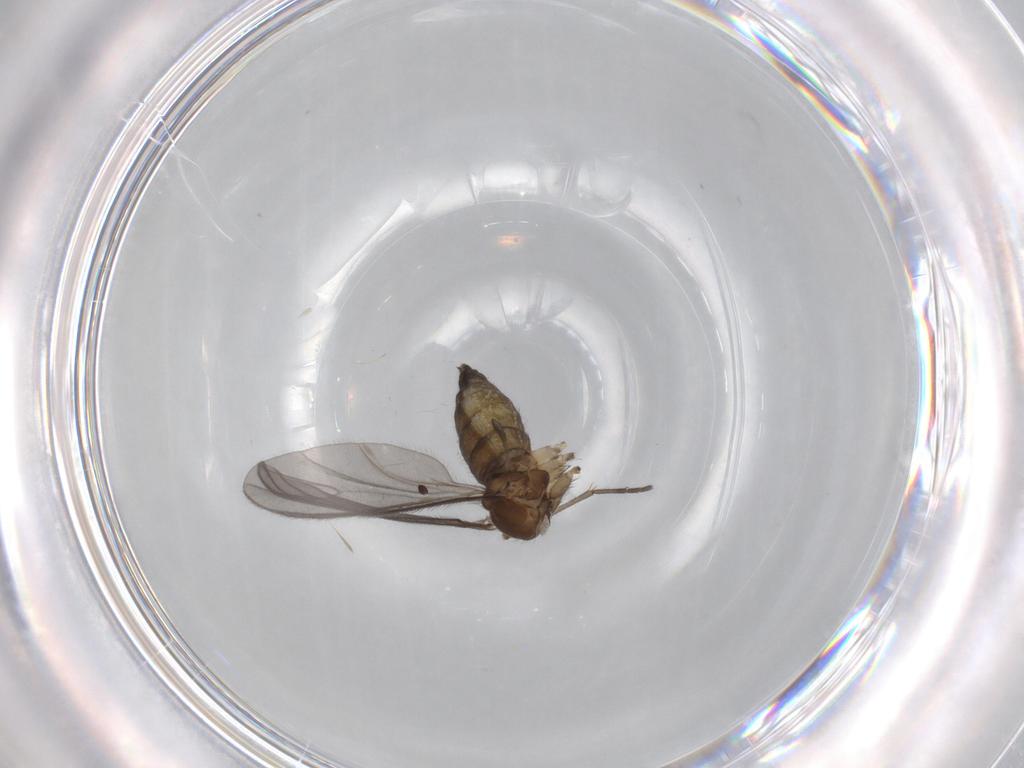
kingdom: Animalia
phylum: Arthropoda
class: Insecta
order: Diptera
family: Sciaridae
